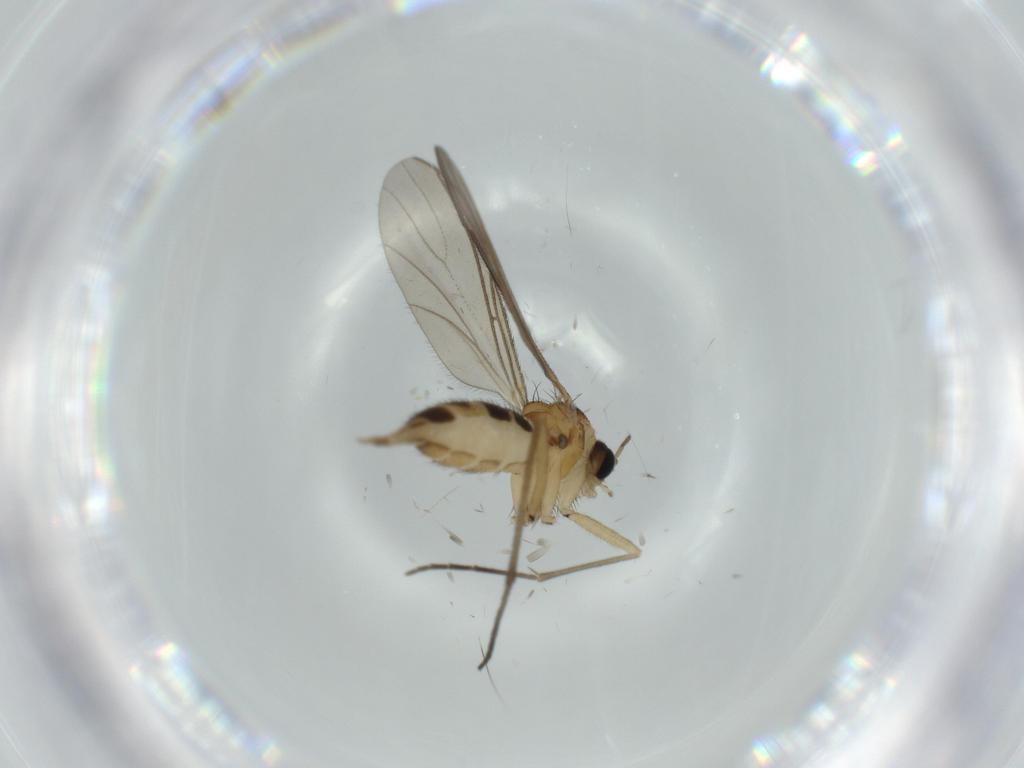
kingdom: Animalia
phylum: Arthropoda
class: Insecta
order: Diptera
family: Sciaridae
